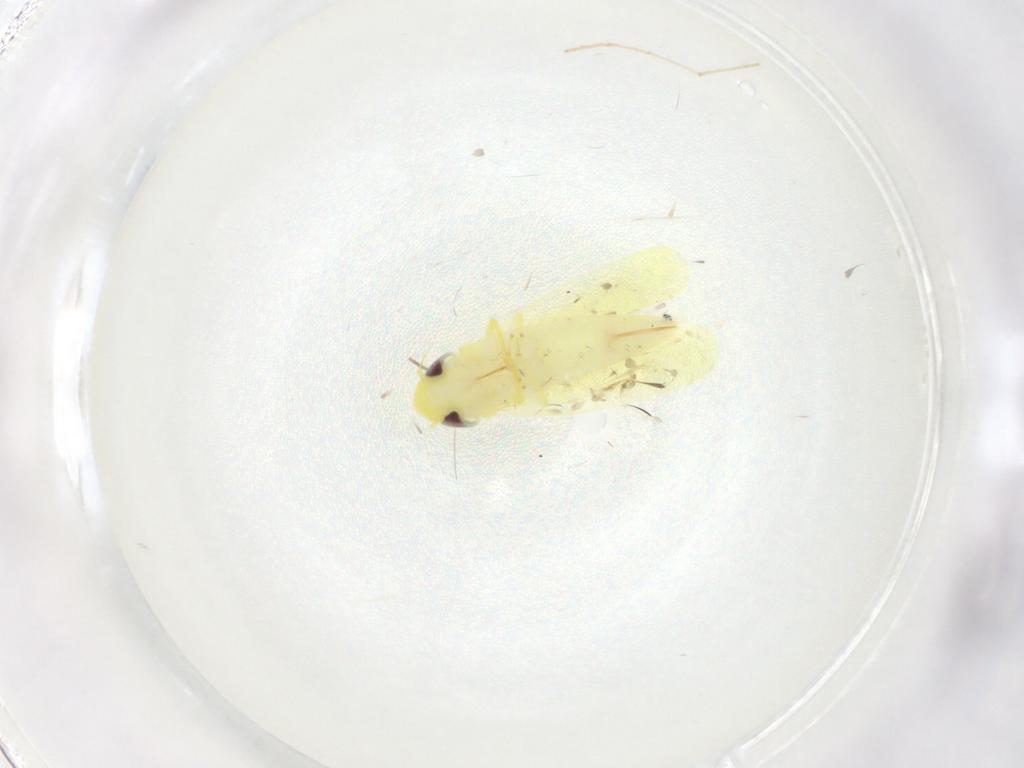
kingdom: Animalia
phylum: Arthropoda
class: Insecta
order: Hemiptera
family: Cicadellidae
